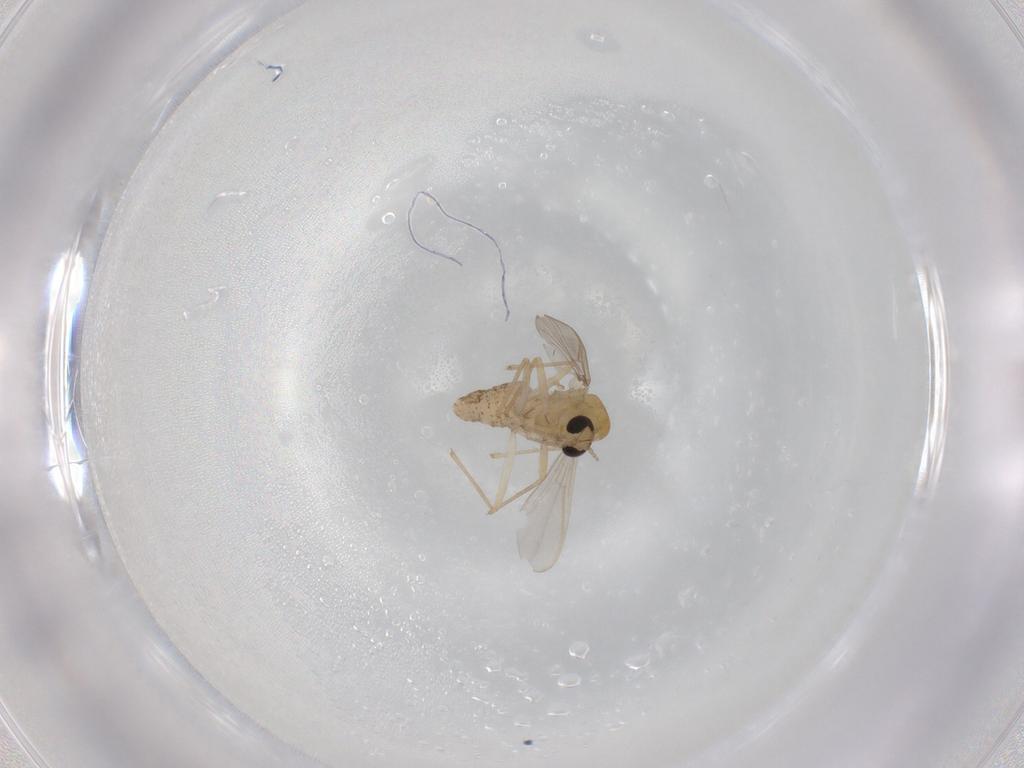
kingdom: Animalia
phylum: Arthropoda
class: Insecta
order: Diptera
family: Chironomidae
